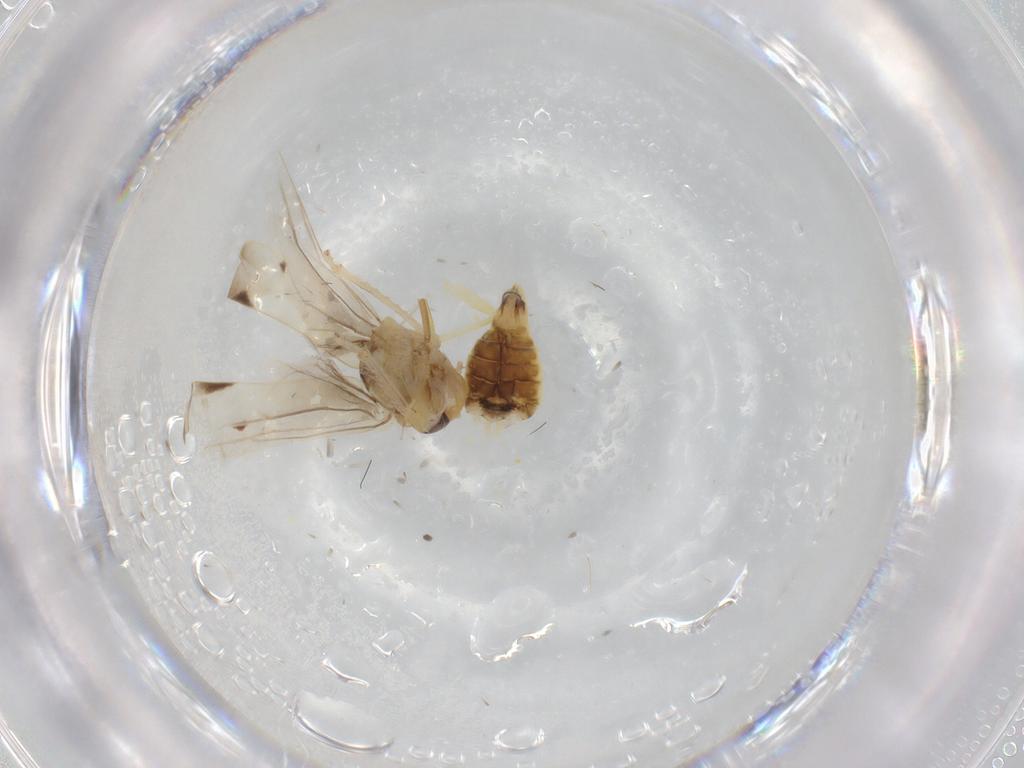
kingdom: Animalia
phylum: Arthropoda
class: Insecta
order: Hemiptera
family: Cicadellidae
